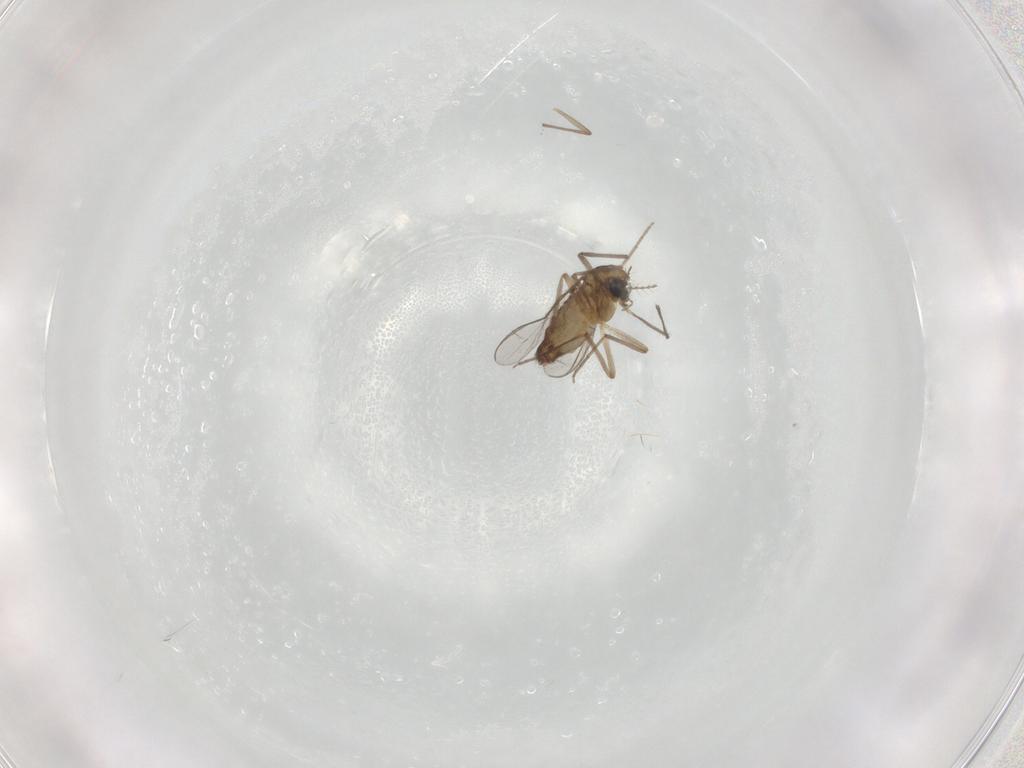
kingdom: Animalia
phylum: Arthropoda
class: Insecta
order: Diptera
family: Chironomidae
